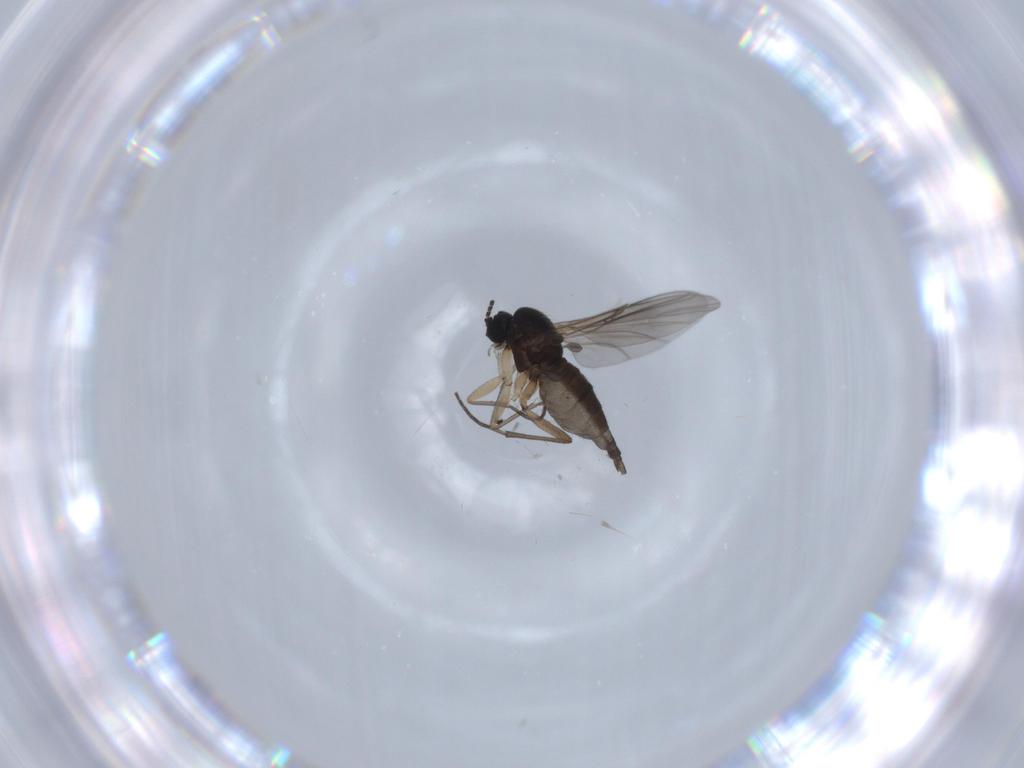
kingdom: Animalia
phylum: Arthropoda
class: Insecta
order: Diptera
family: Sciaridae
